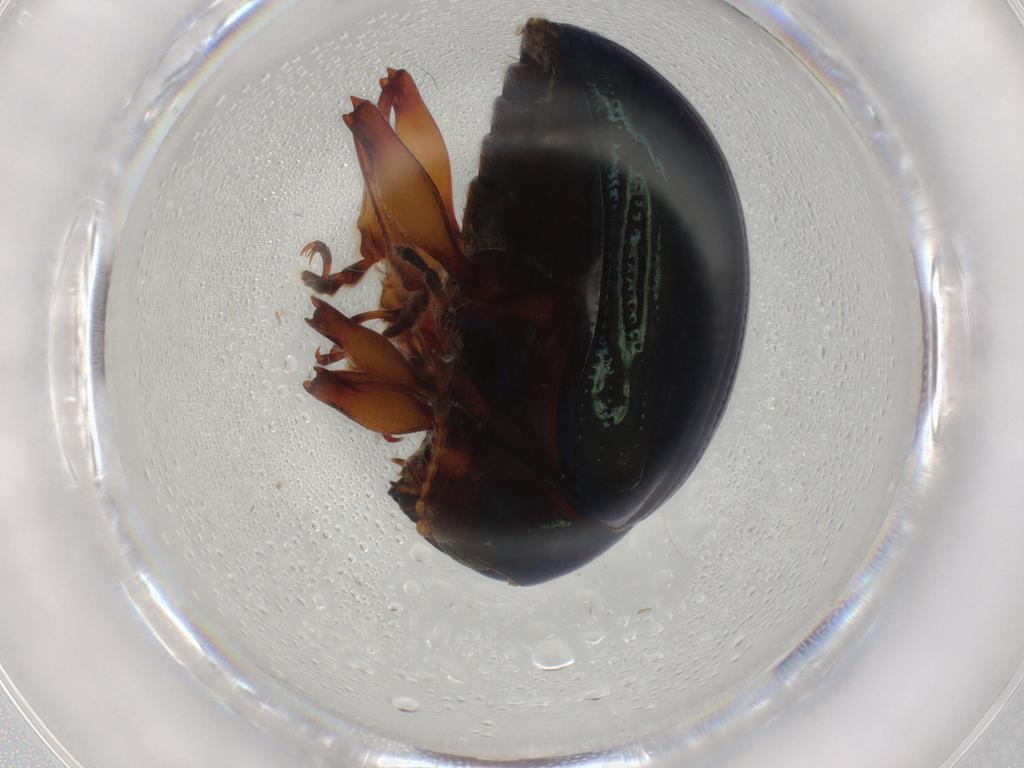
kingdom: Animalia
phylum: Arthropoda
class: Insecta
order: Coleoptera
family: Chrysomelidae
